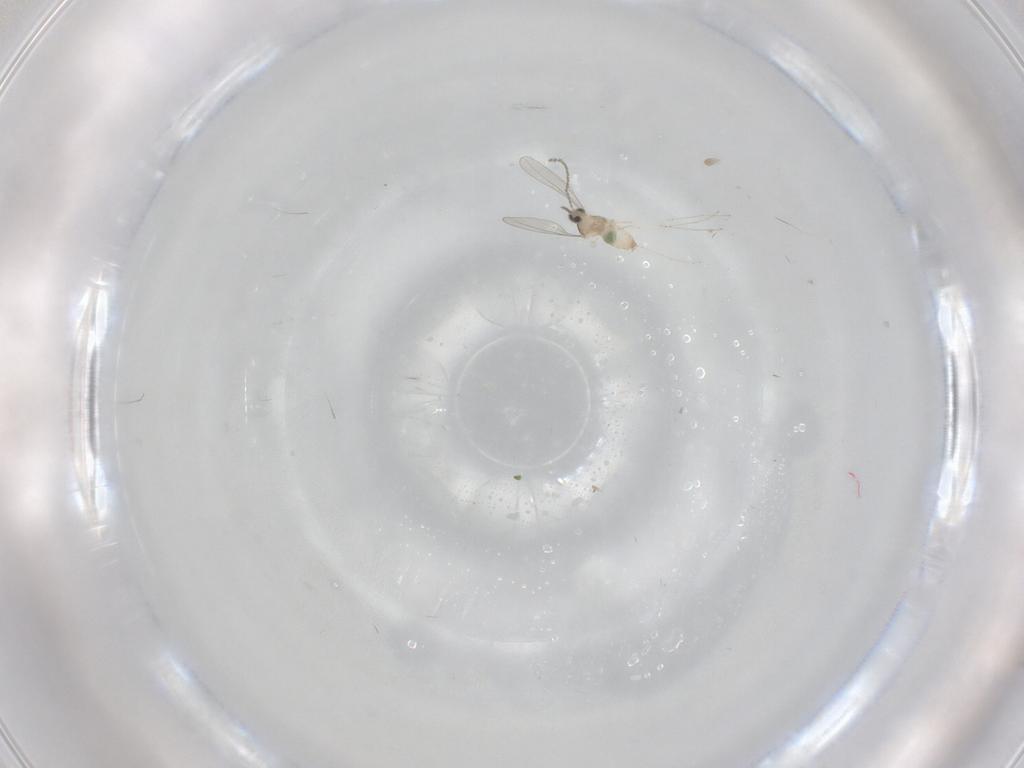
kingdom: Animalia
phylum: Arthropoda
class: Insecta
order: Diptera
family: Cecidomyiidae
